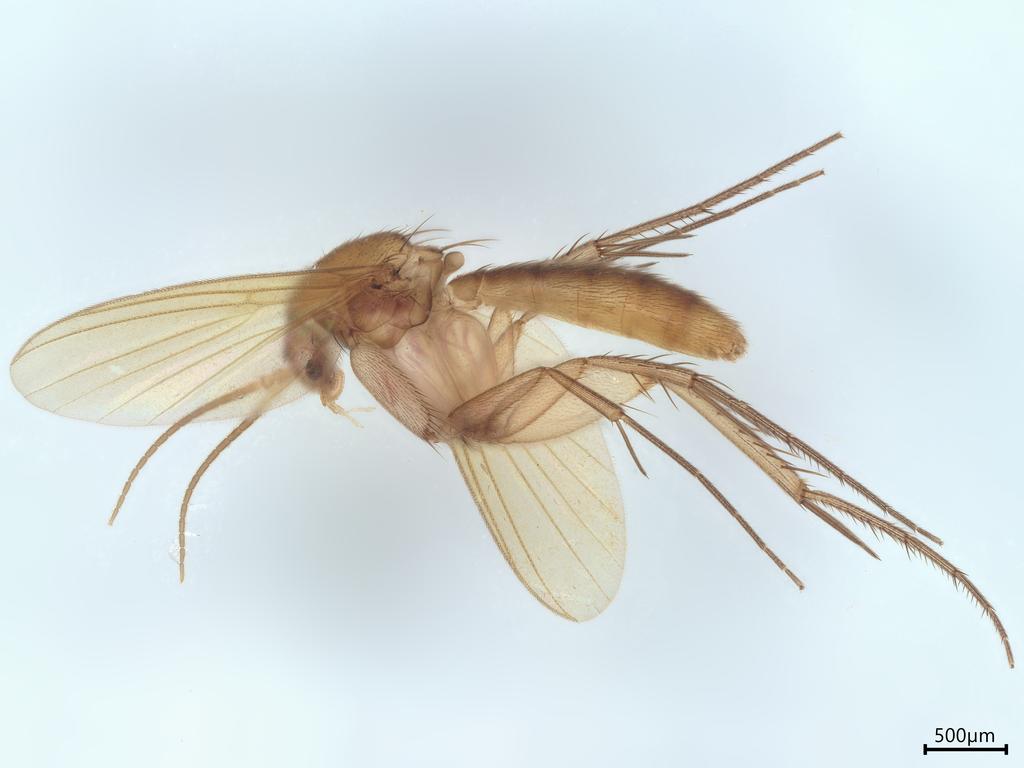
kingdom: Animalia
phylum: Arthropoda
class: Insecta
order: Diptera
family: Mycetophilidae
